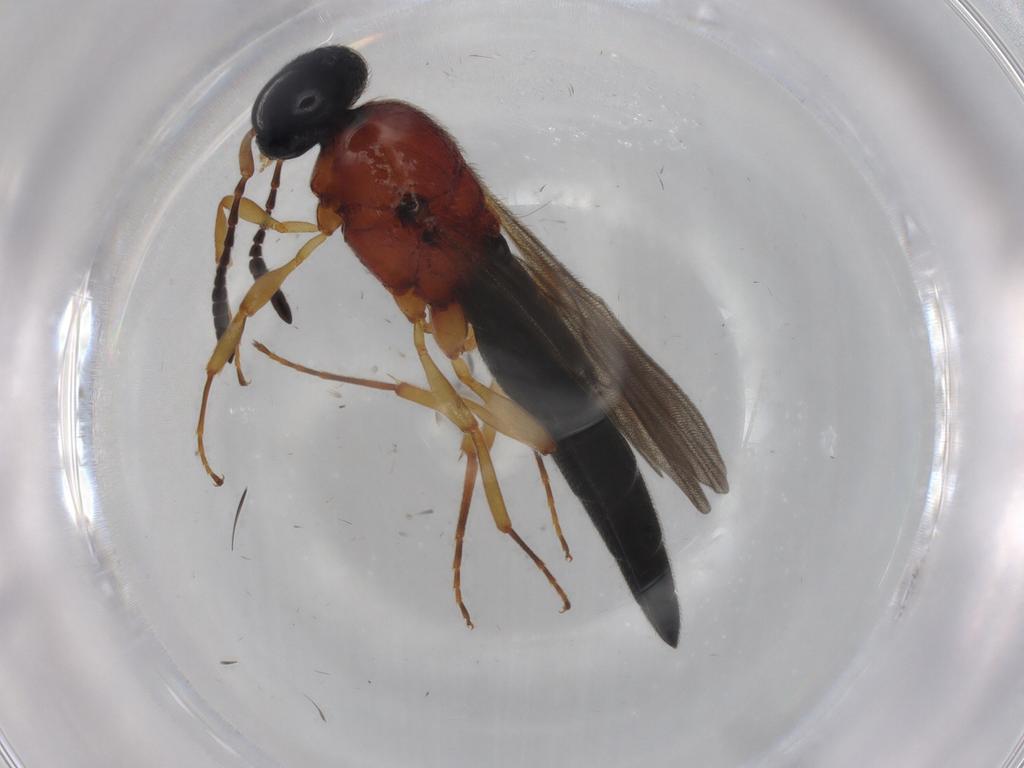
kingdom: Animalia
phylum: Arthropoda
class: Insecta
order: Hymenoptera
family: Scelionidae
